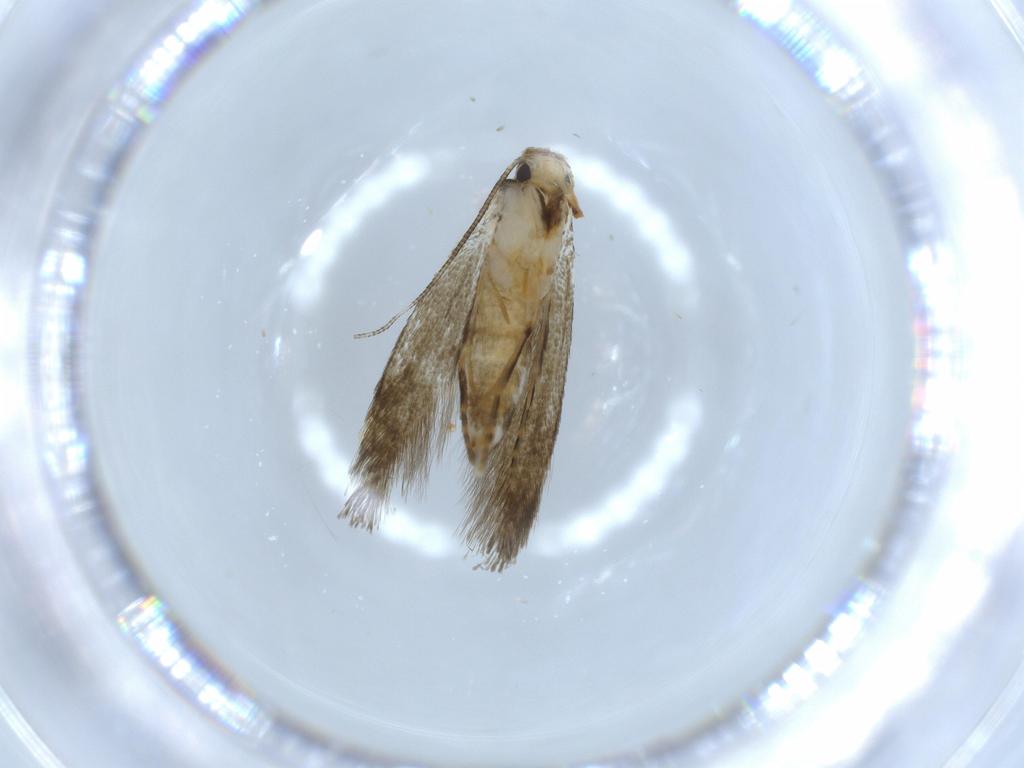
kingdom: Animalia
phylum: Arthropoda
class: Insecta
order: Lepidoptera
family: Tineidae
